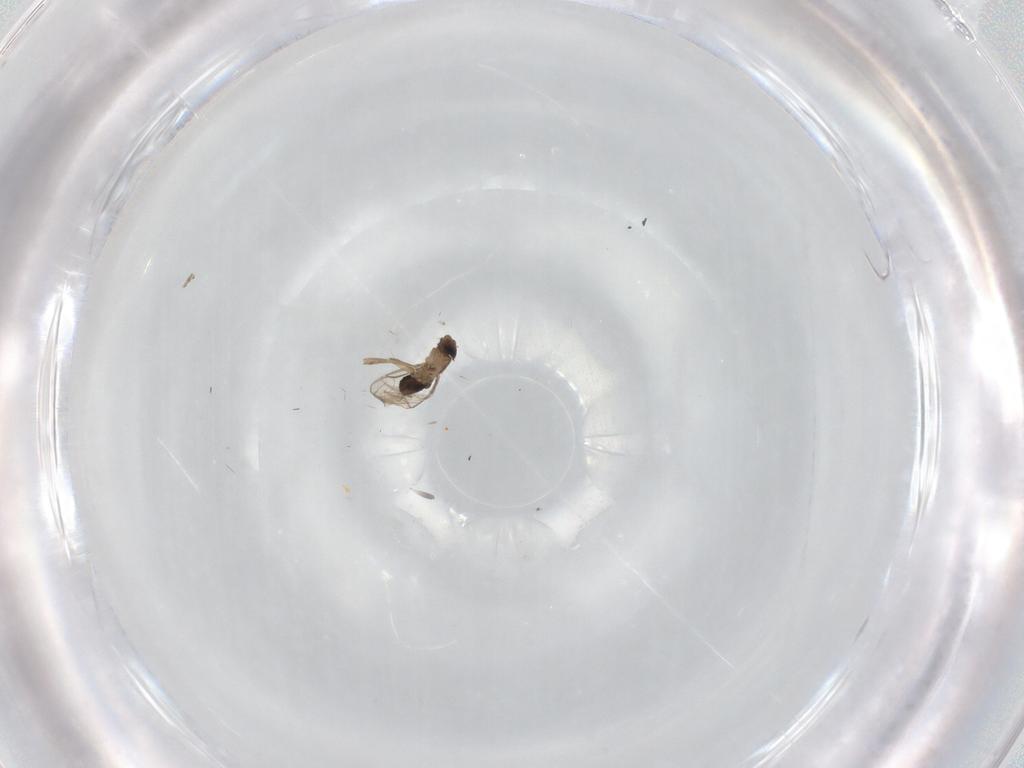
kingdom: Animalia
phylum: Arthropoda
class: Insecta
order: Diptera
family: Phoridae
